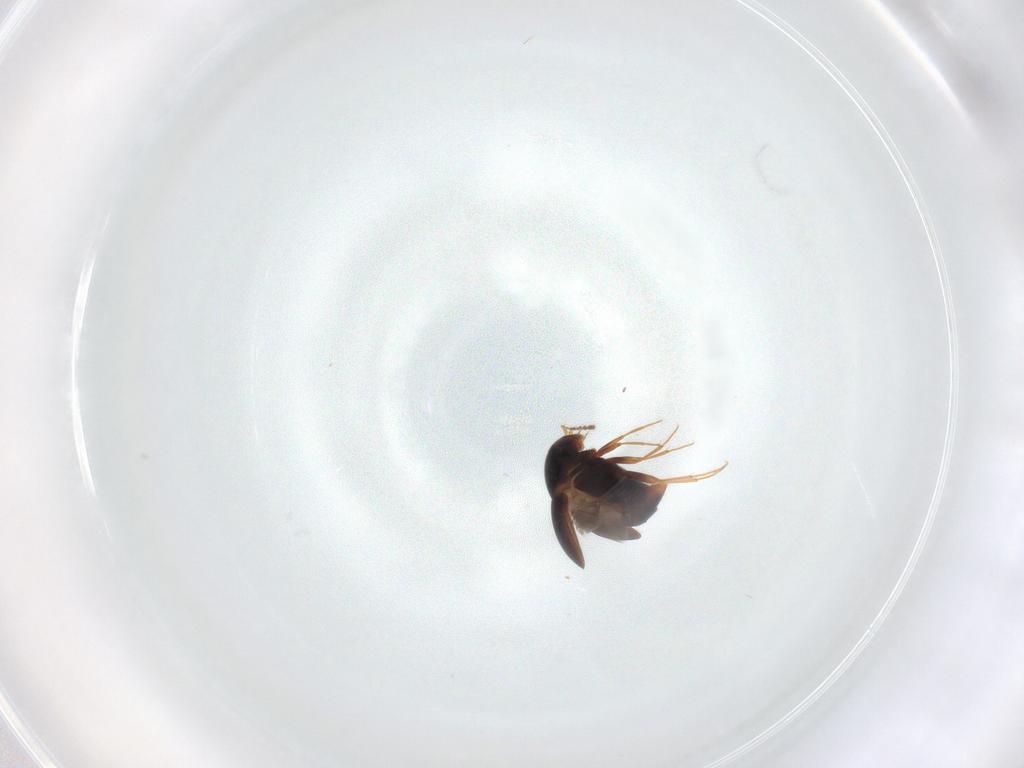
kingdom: Animalia
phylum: Arthropoda
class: Insecta
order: Coleoptera
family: Staphylinidae
